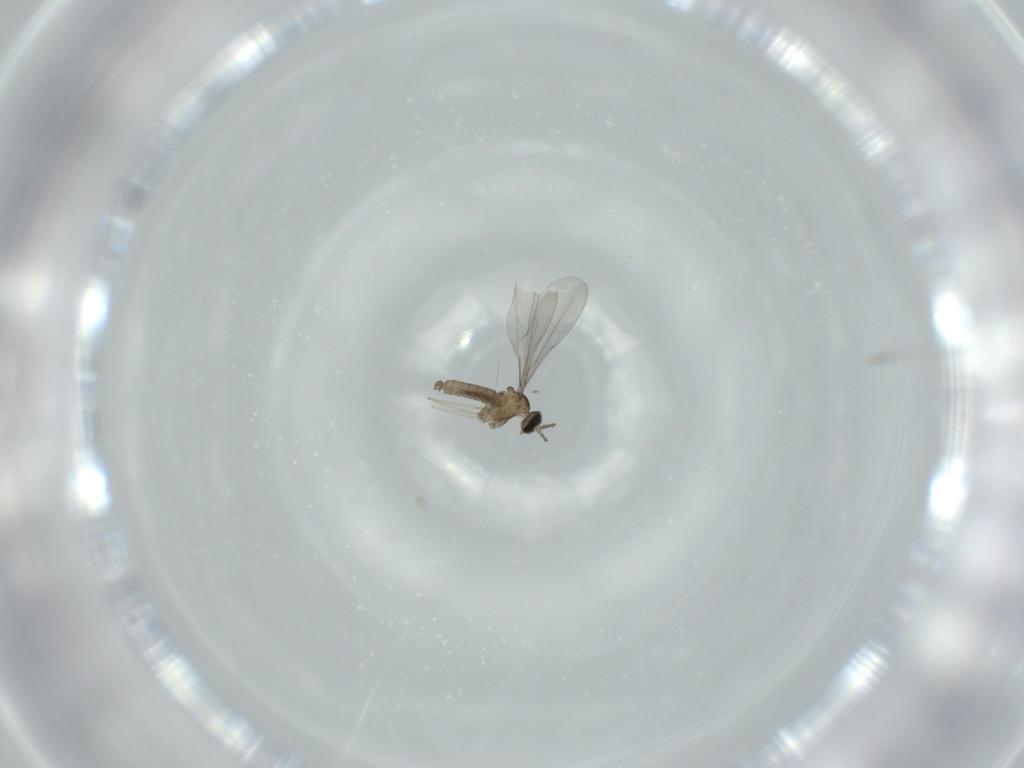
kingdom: Animalia
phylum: Arthropoda
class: Insecta
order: Diptera
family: Cecidomyiidae
